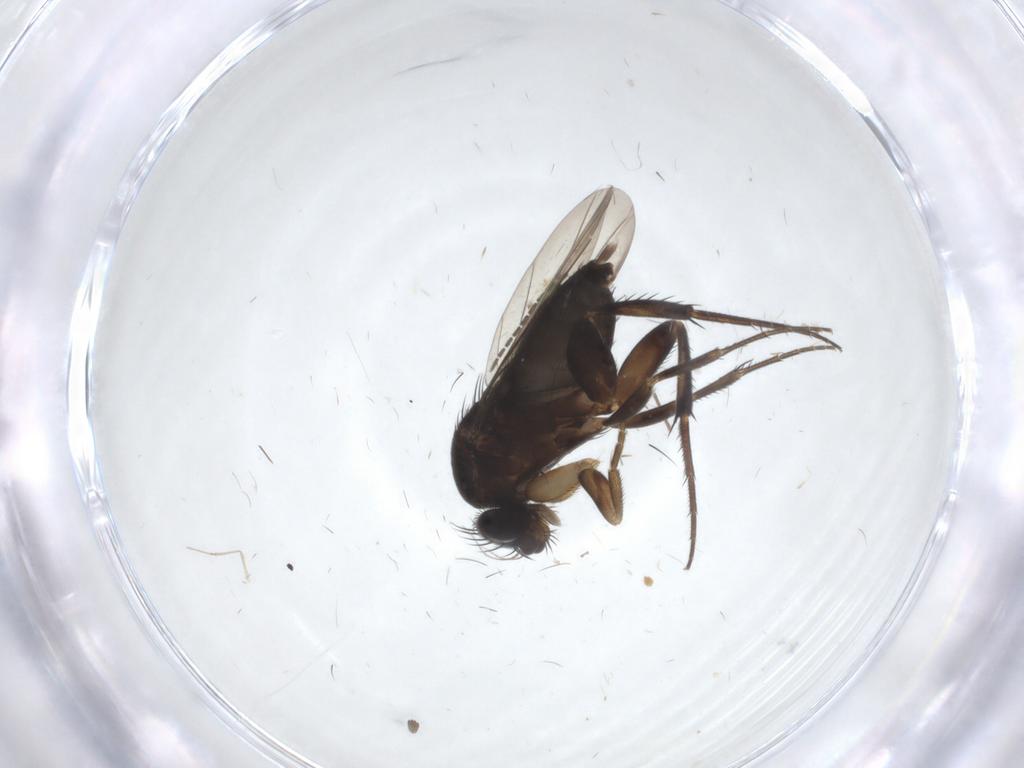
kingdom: Animalia
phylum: Arthropoda
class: Insecta
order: Diptera
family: Phoridae
